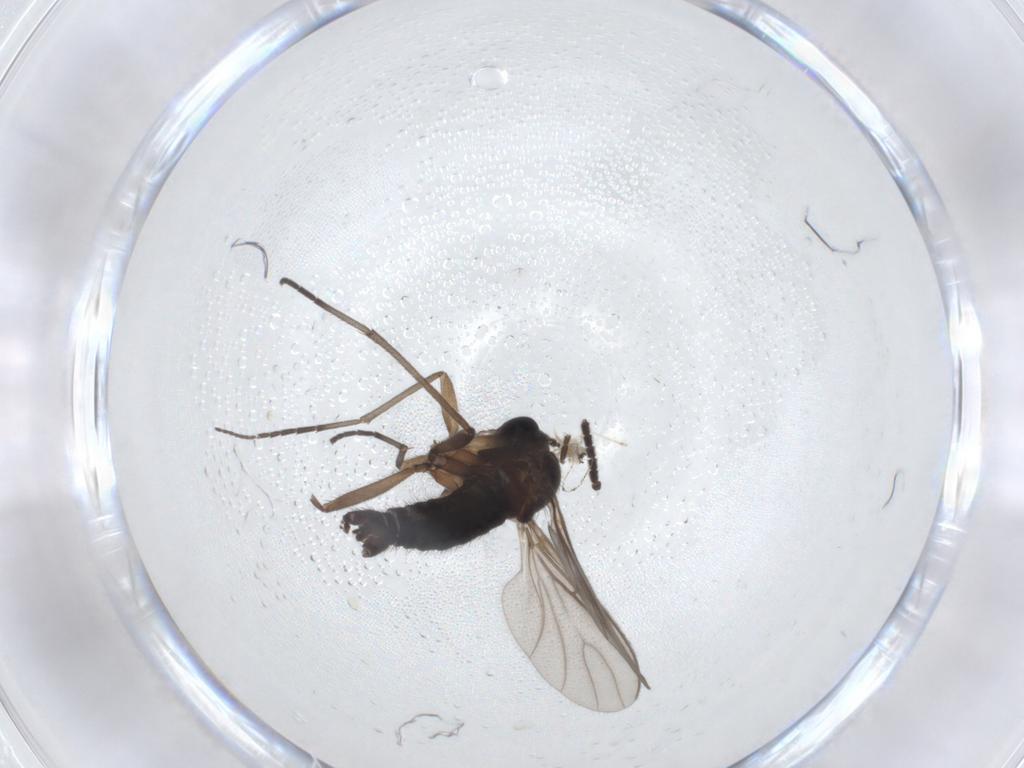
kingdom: Animalia
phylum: Arthropoda
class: Insecta
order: Diptera
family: Sciaridae
